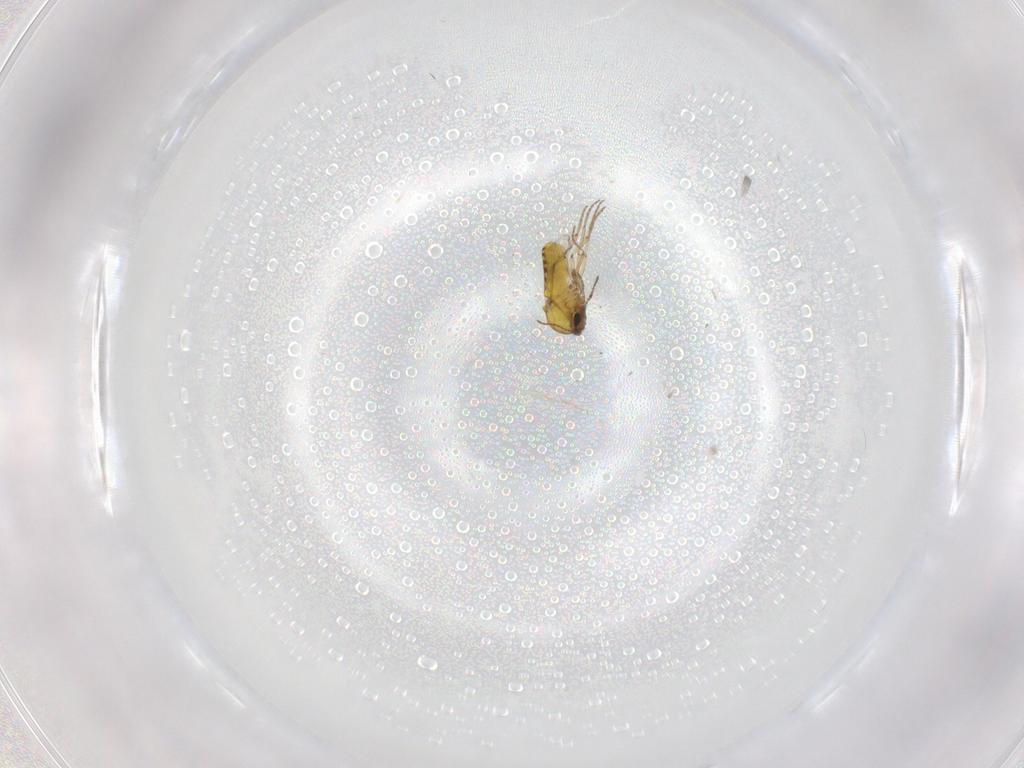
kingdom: Animalia
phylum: Arthropoda
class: Insecta
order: Diptera
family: Ceratopogonidae
